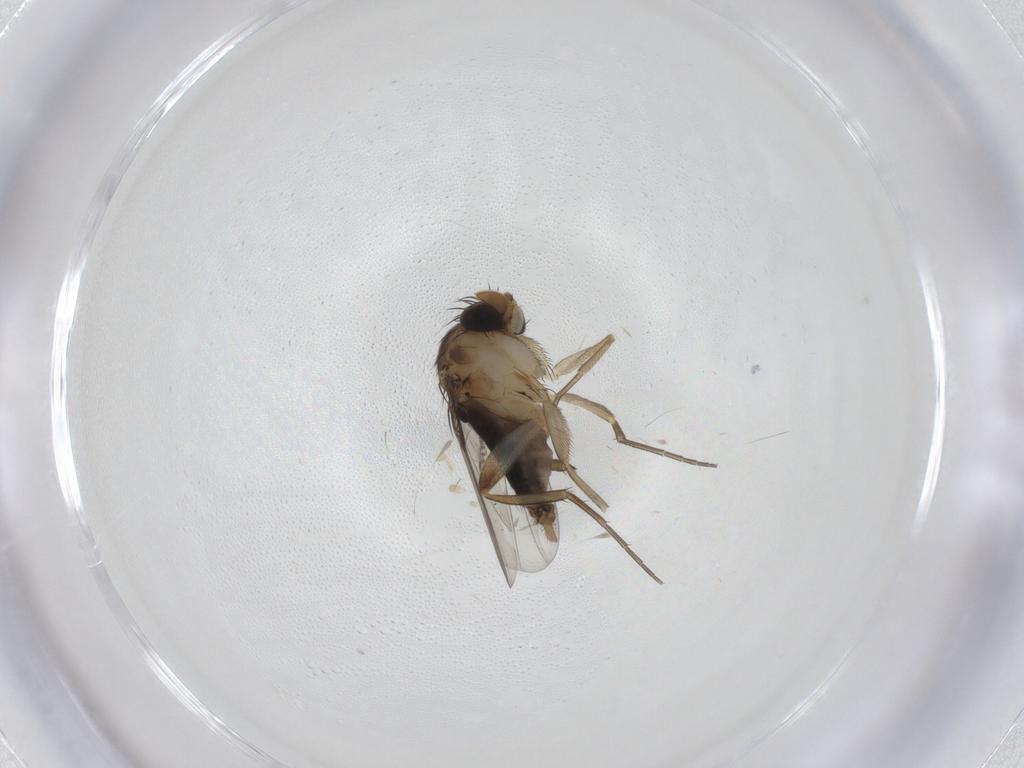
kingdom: Animalia
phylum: Arthropoda
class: Insecta
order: Diptera
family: Phoridae
